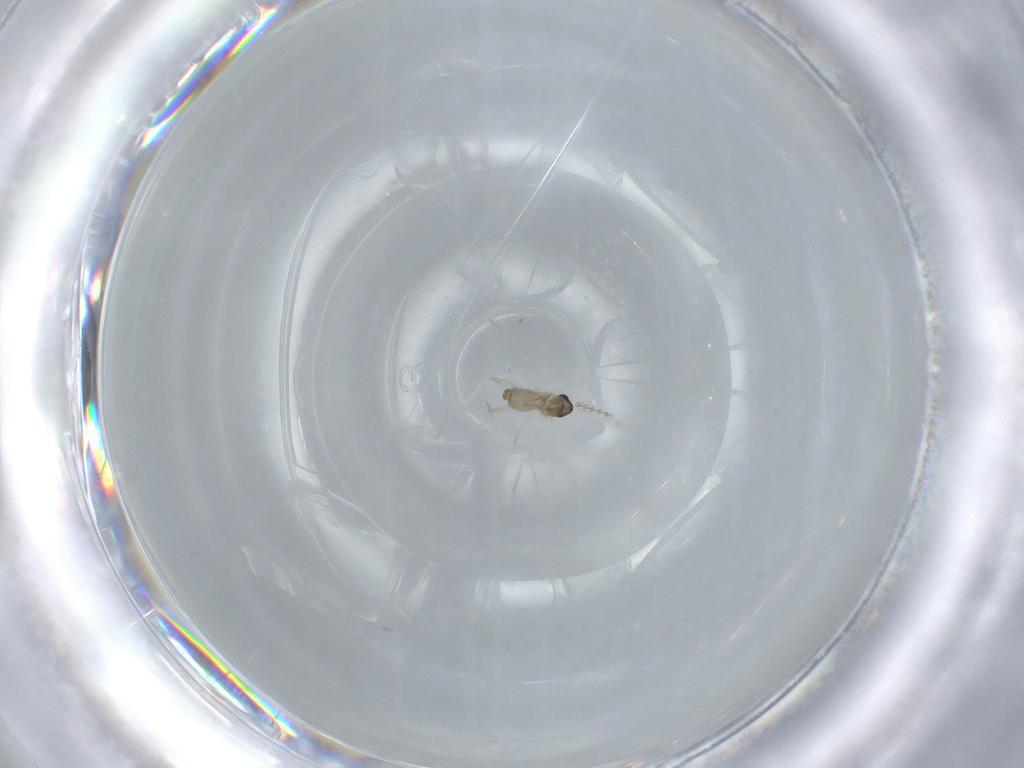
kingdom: Animalia
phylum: Arthropoda
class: Insecta
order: Diptera
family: Cecidomyiidae
